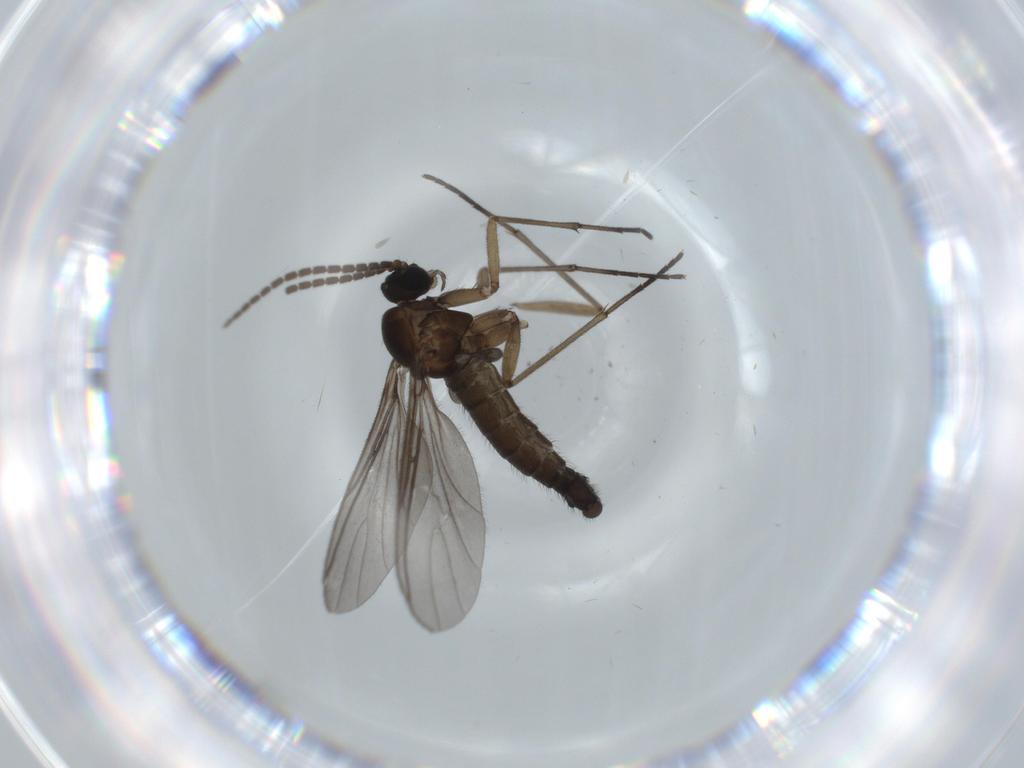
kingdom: Animalia
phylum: Arthropoda
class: Insecta
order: Diptera
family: Sciaridae
